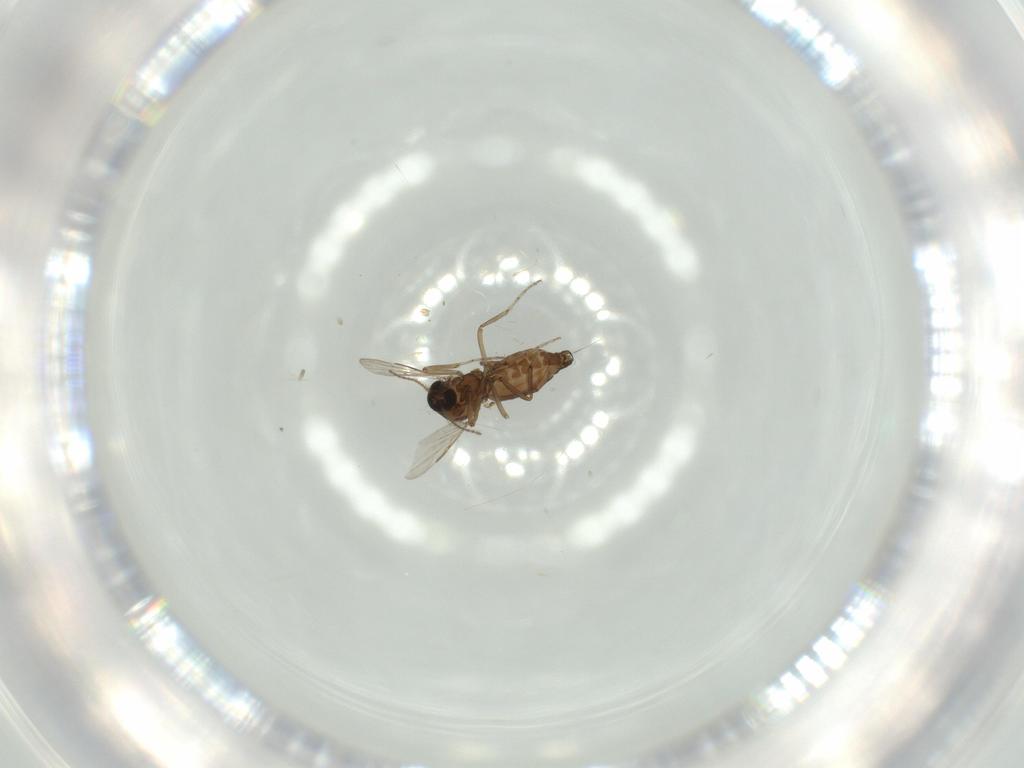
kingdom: Animalia
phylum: Arthropoda
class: Insecta
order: Diptera
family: Ceratopogonidae
